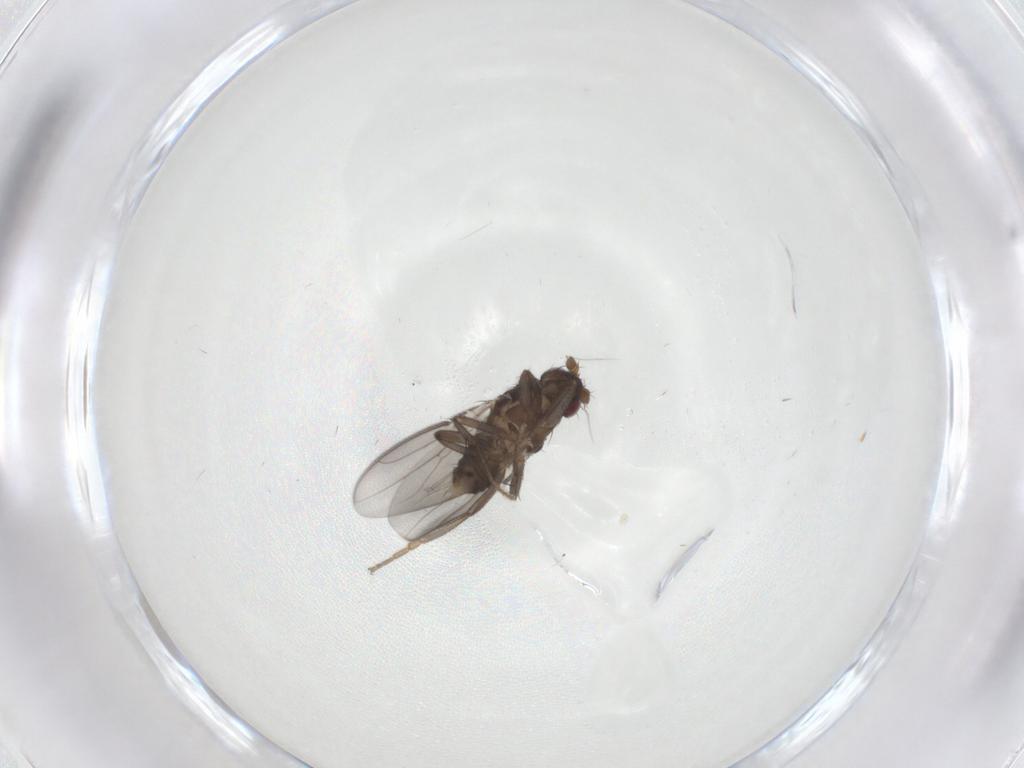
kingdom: Animalia
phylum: Arthropoda
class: Insecta
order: Diptera
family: Sphaeroceridae
